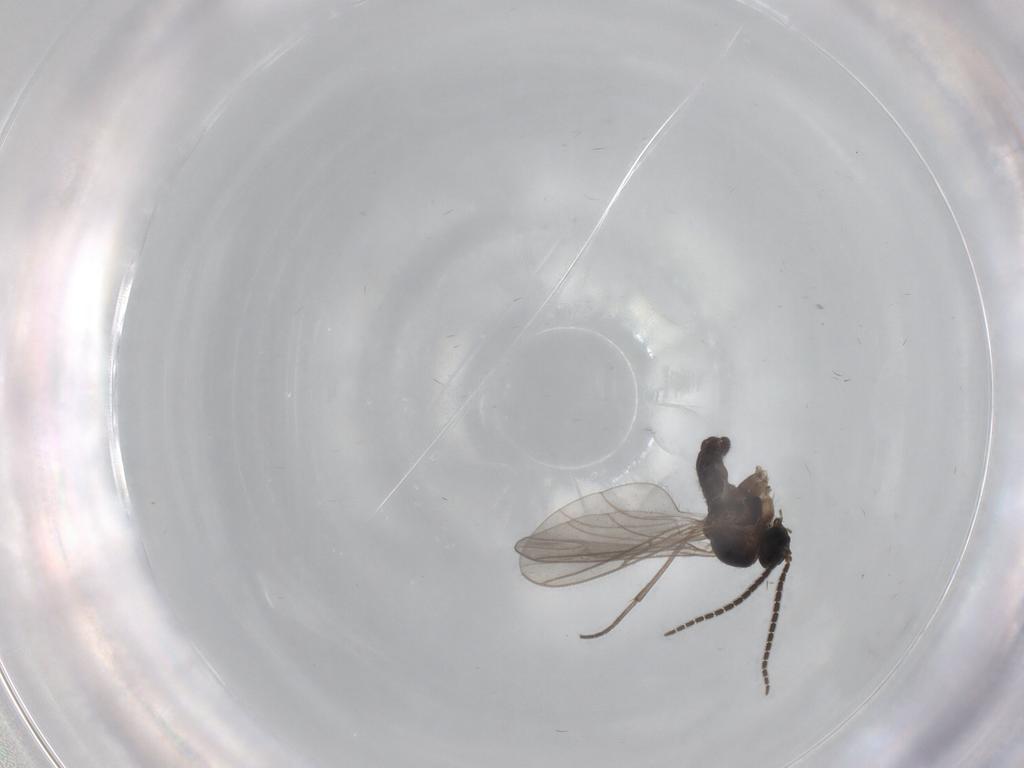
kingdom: Animalia
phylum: Arthropoda
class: Insecta
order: Diptera
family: Sciaridae
